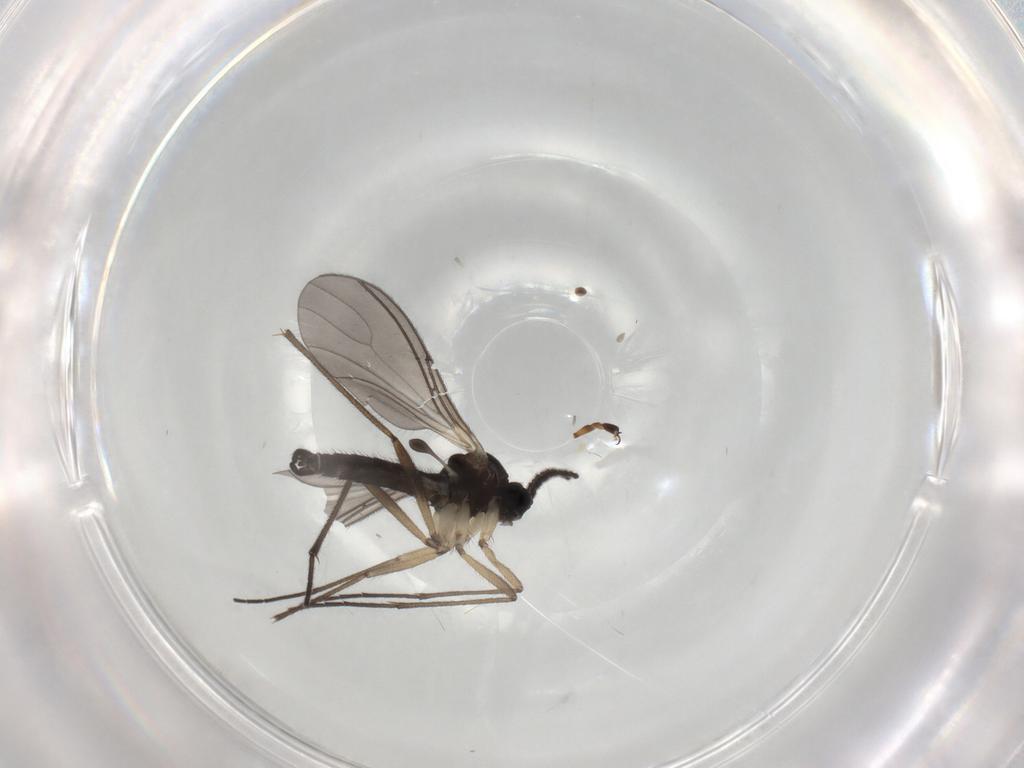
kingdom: Animalia
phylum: Arthropoda
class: Insecta
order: Diptera
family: Sciaridae
